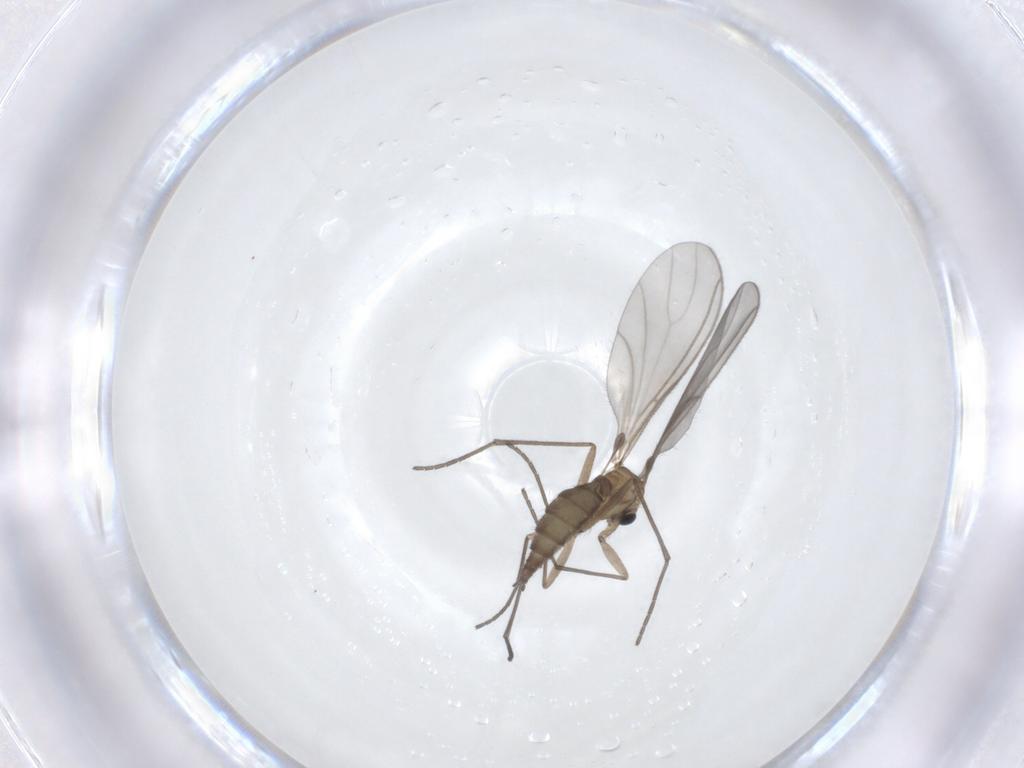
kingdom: Animalia
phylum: Arthropoda
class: Insecta
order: Diptera
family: Sciaridae
